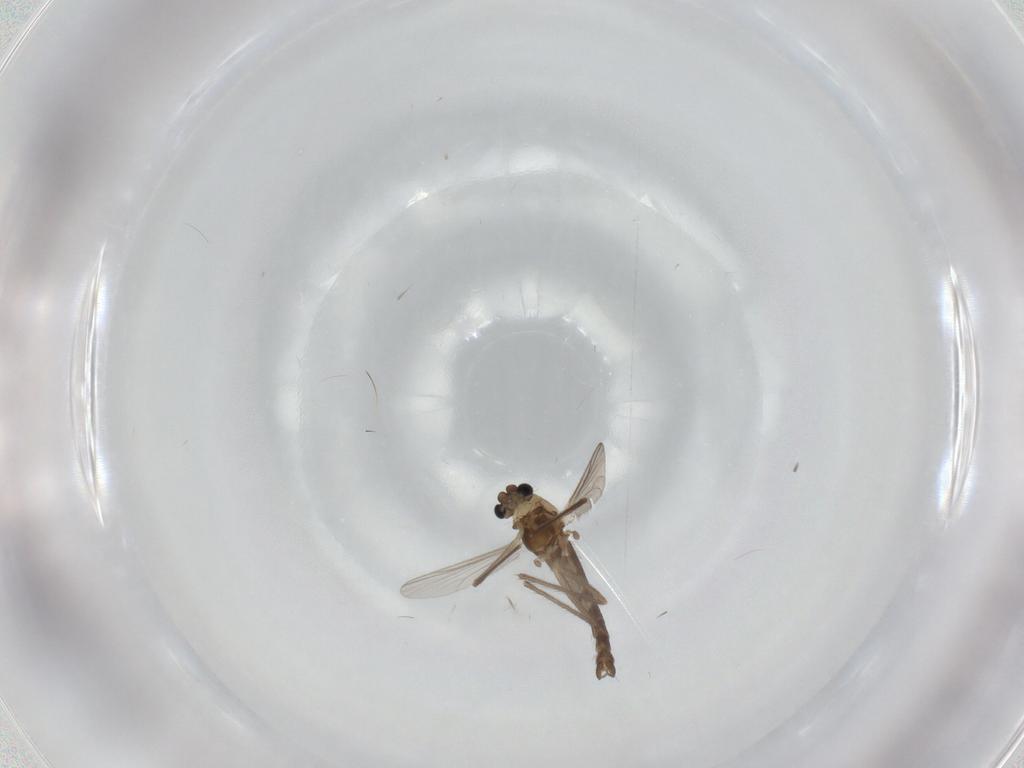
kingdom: Animalia
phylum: Arthropoda
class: Insecta
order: Diptera
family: Chironomidae
